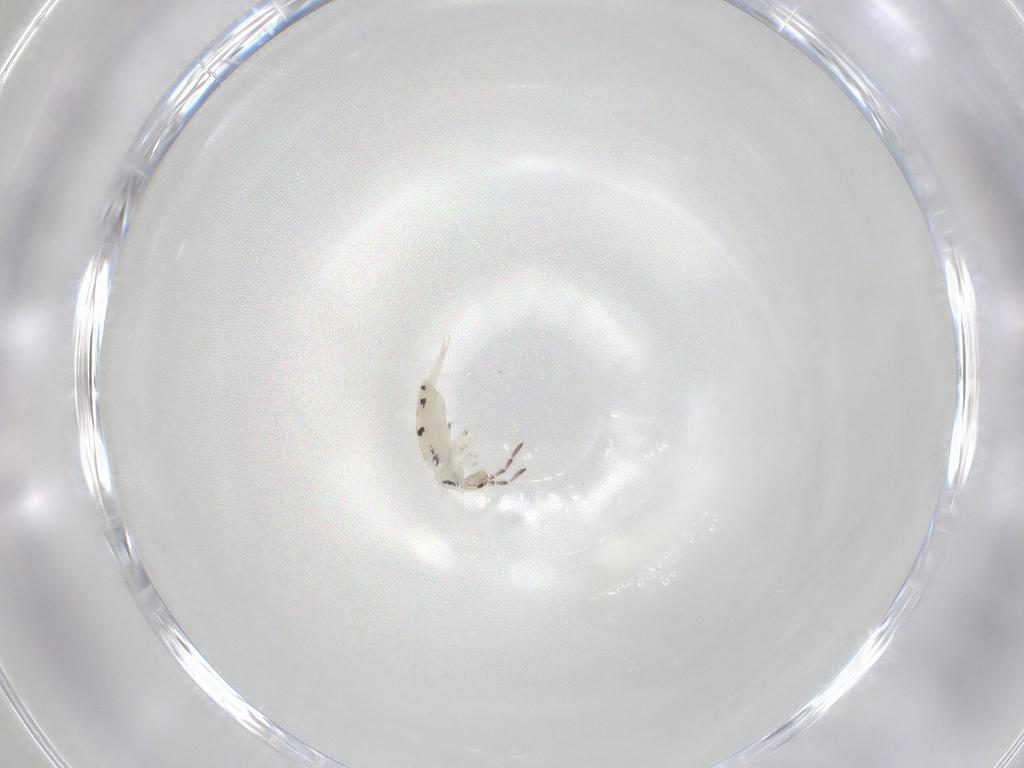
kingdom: Animalia
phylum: Arthropoda
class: Collembola
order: Entomobryomorpha
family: Entomobryidae
